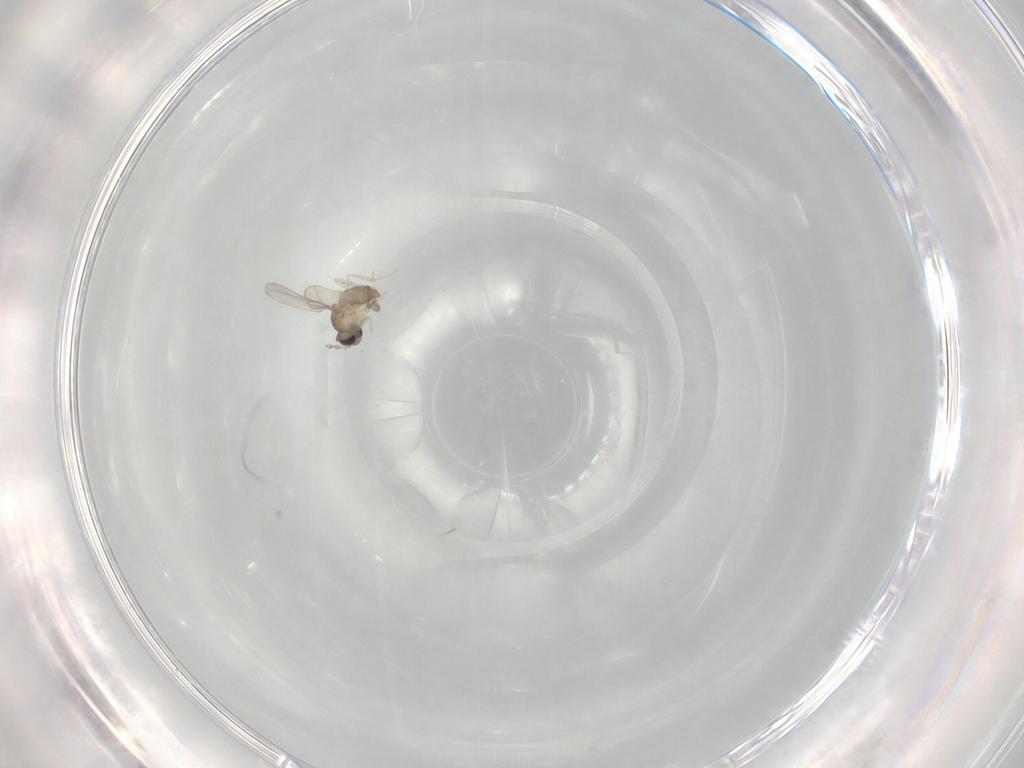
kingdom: Animalia
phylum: Arthropoda
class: Insecta
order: Diptera
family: Cecidomyiidae
